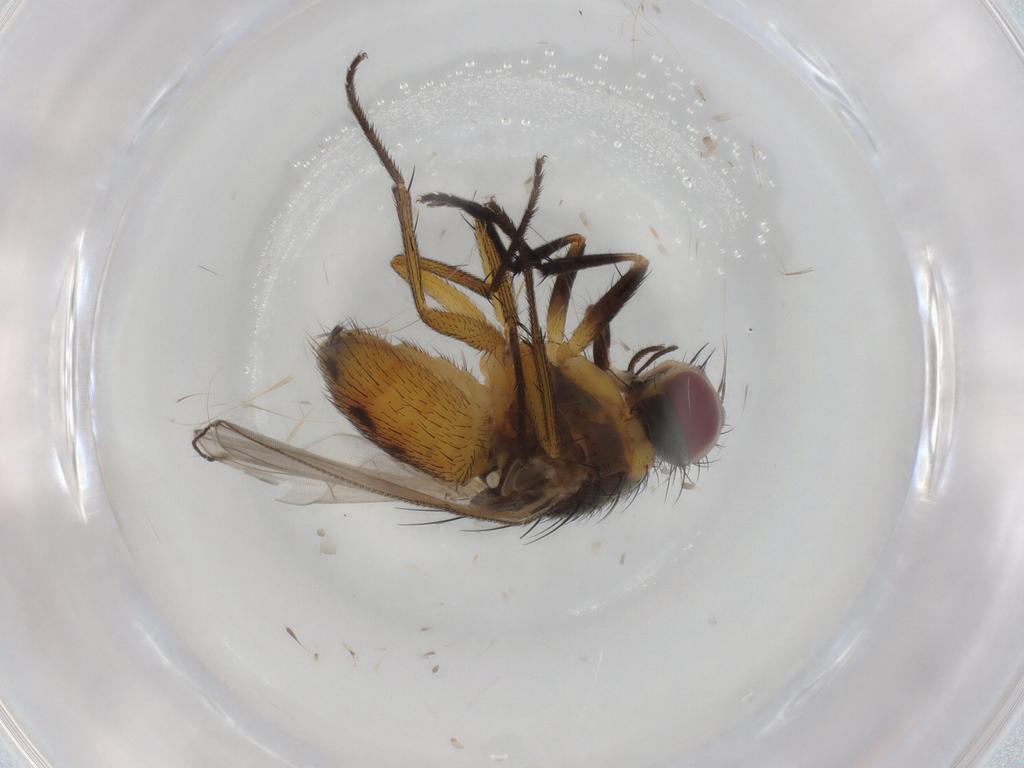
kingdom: Animalia
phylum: Arthropoda
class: Insecta
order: Diptera
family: Muscidae
